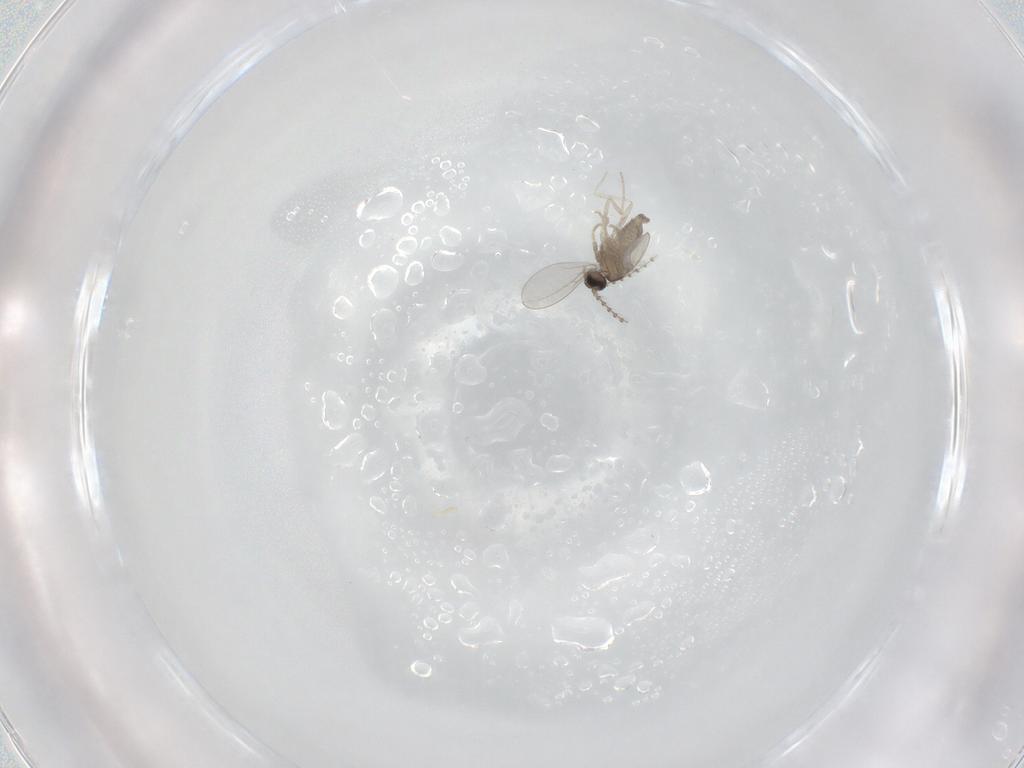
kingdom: Animalia
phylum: Arthropoda
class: Insecta
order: Diptera
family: Cecidomyiidae
